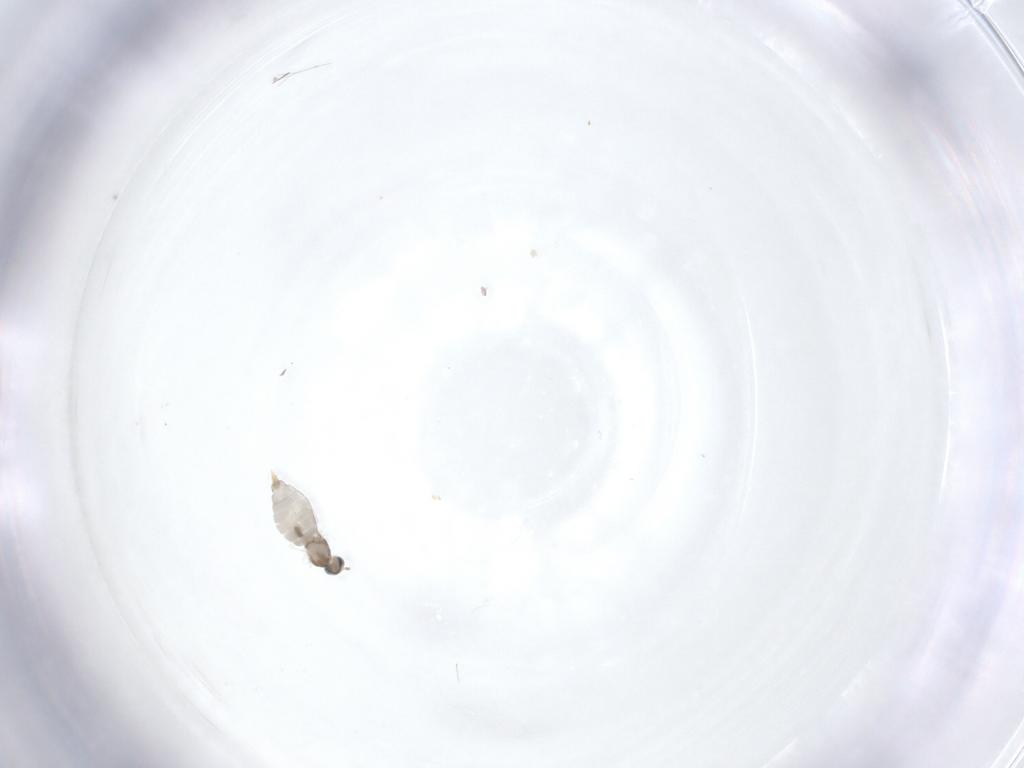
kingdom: Animalia
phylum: Arthropoda
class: Insecta
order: Diptera
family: Cecidomyiidae
